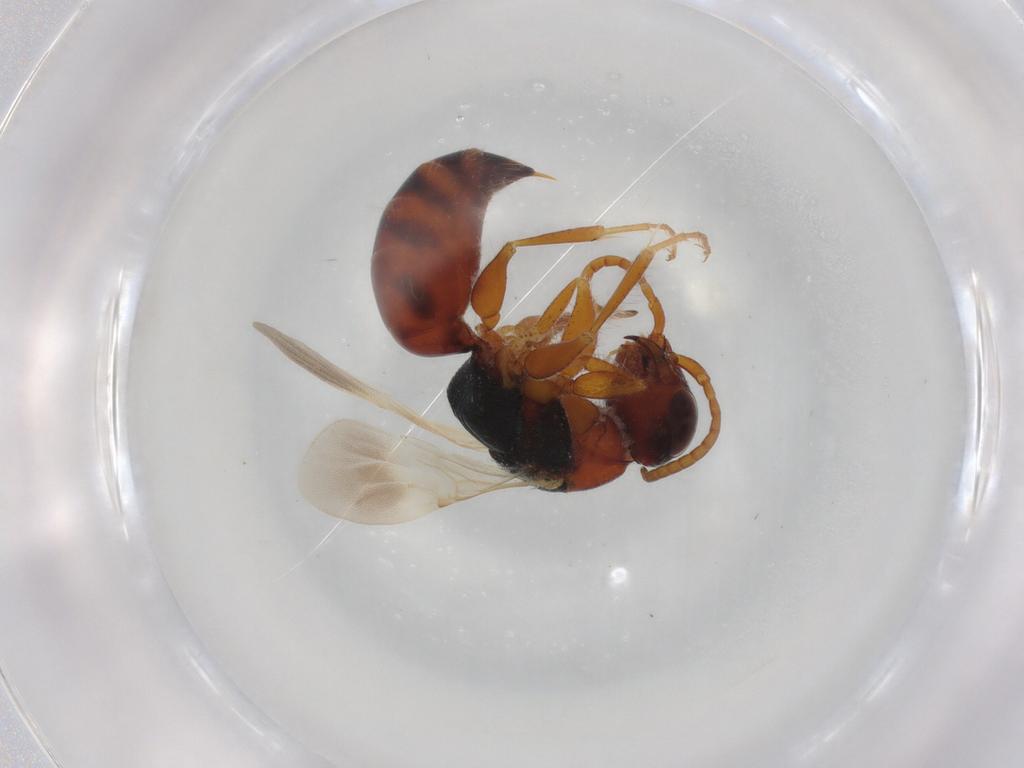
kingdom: Animalia
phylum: Arthropoda
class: Insecta
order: Hymenoptera
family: Bethylidae
